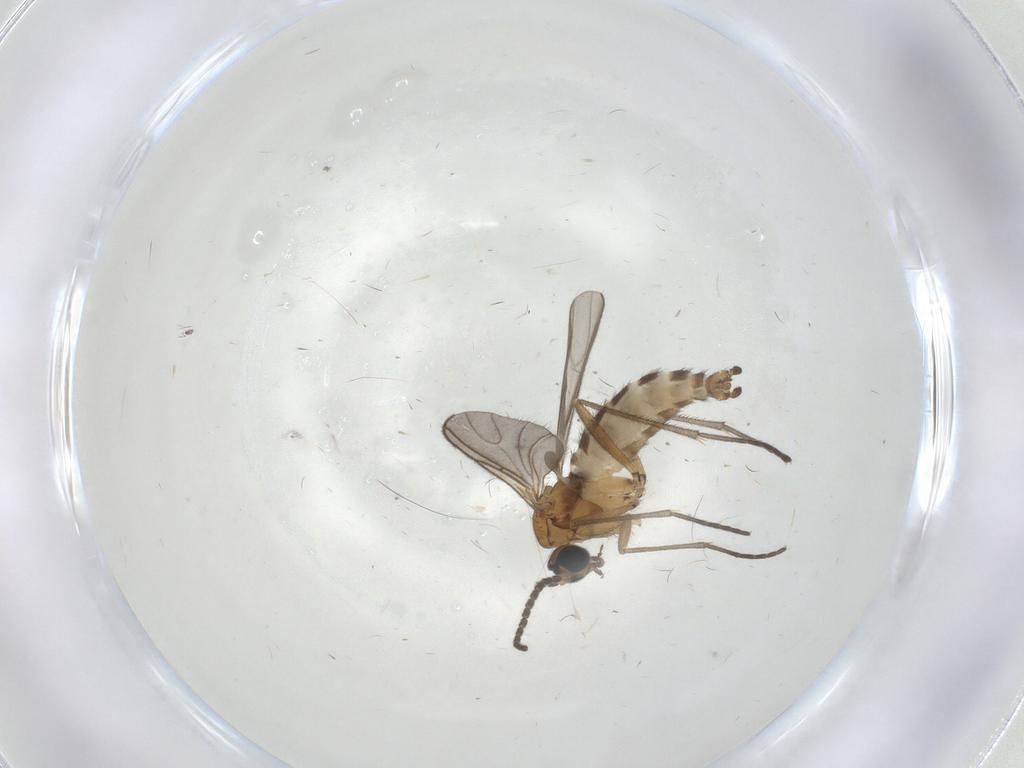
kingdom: Animalia
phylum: Arthropoda
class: Insecta
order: Diptera
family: Sciaridae
